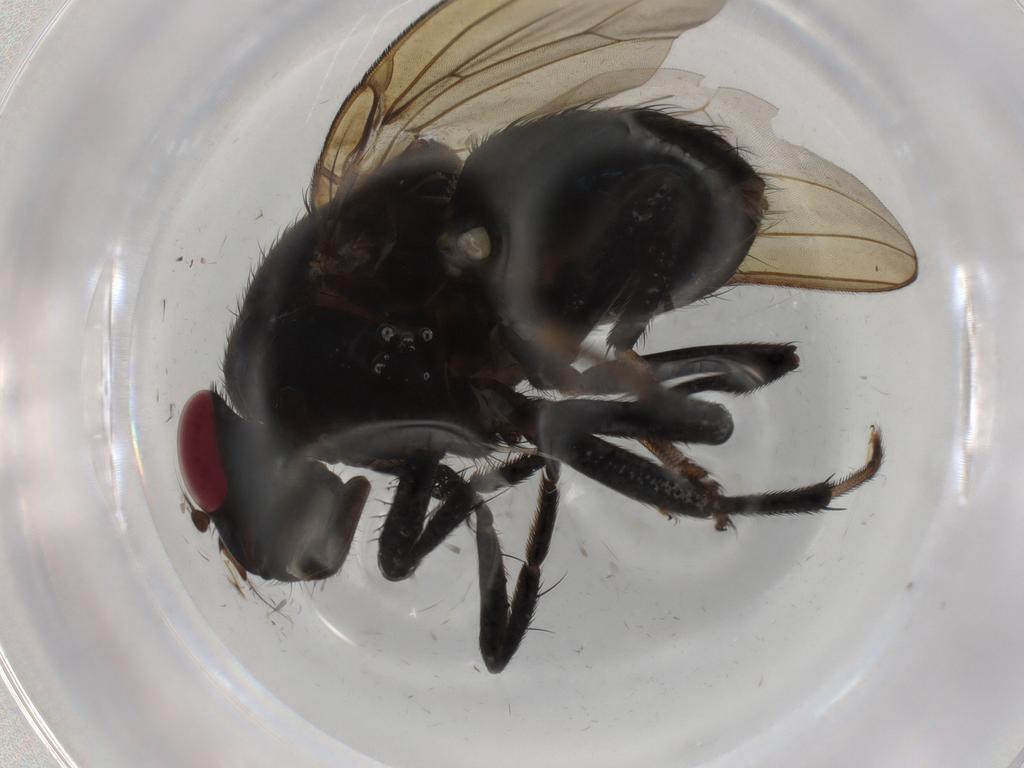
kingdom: Animalia
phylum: Arthropoda
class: Insecta
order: Diptera
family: Lauxaniidae
